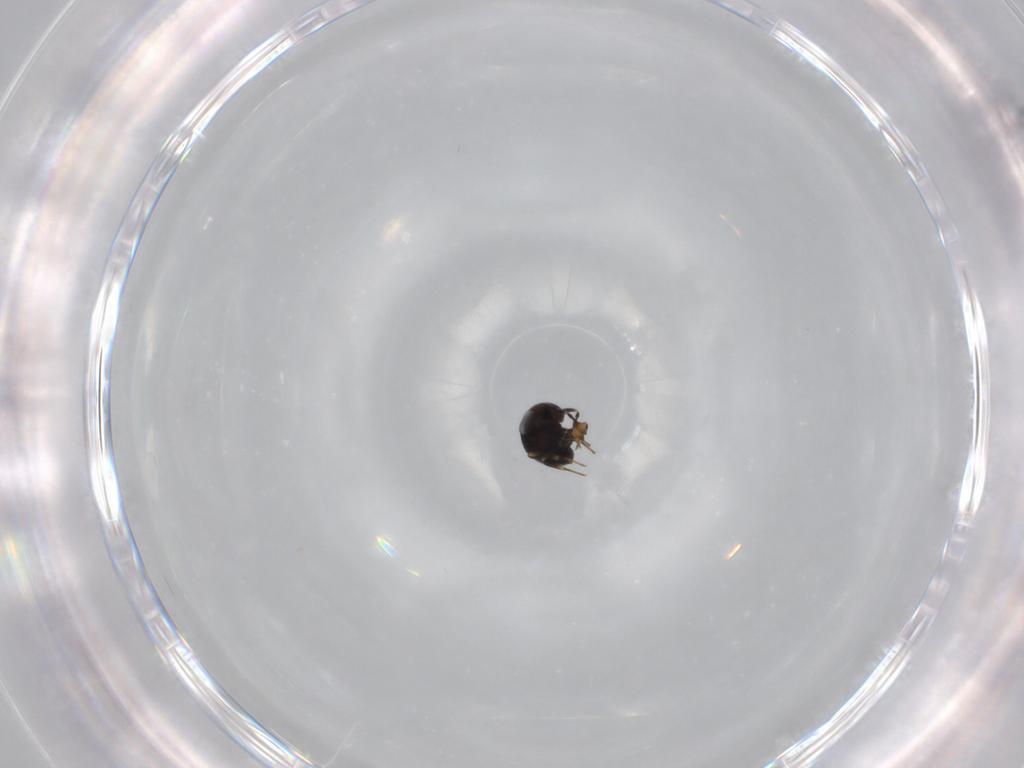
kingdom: Animalia
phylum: Arthropoda
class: Insecta
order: Hymenoptera
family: Scelionidae
